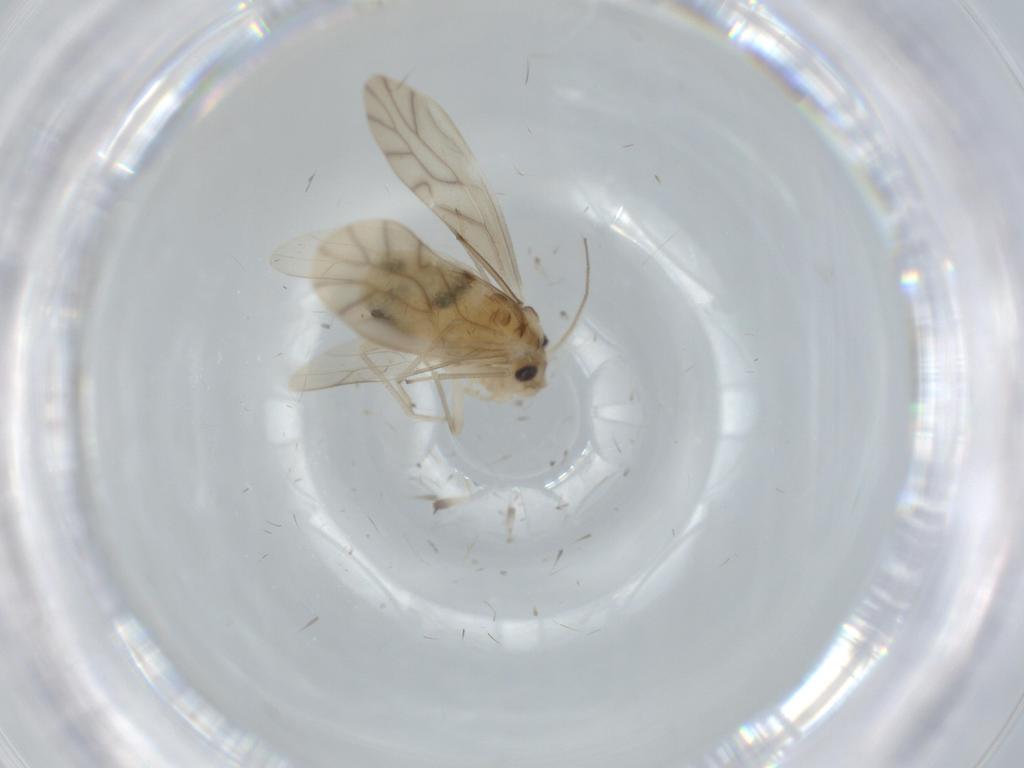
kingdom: Animalia
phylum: Arthropoda
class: Insecta
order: Psocodea
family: Caeciliusidae
